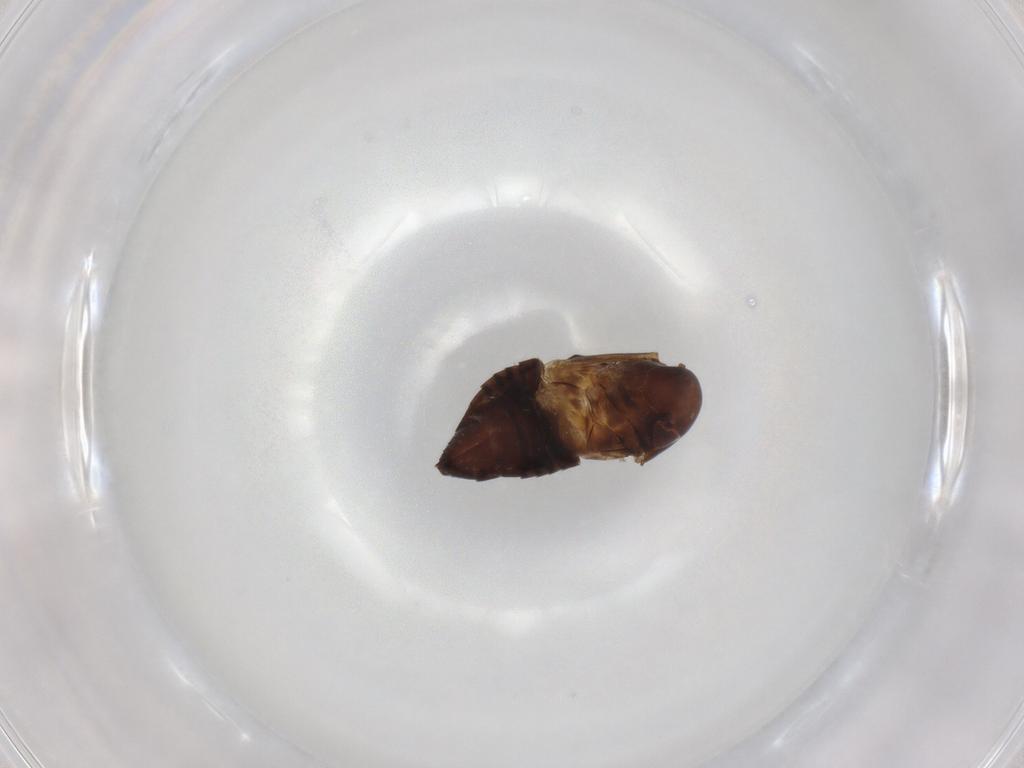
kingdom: Animalia
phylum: Arthropoda
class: Insecta
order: Hemiptera
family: Cicadellidae
